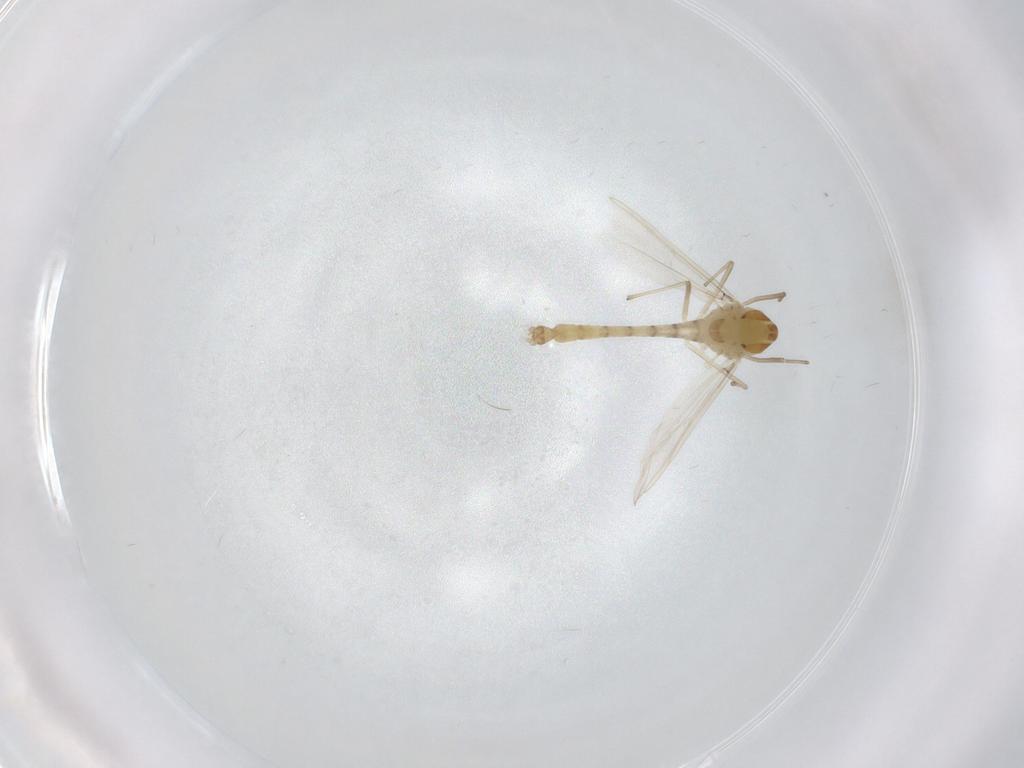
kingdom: Animalia
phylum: Arthropoda
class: Insecta
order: Diptera
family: Chironomidae
